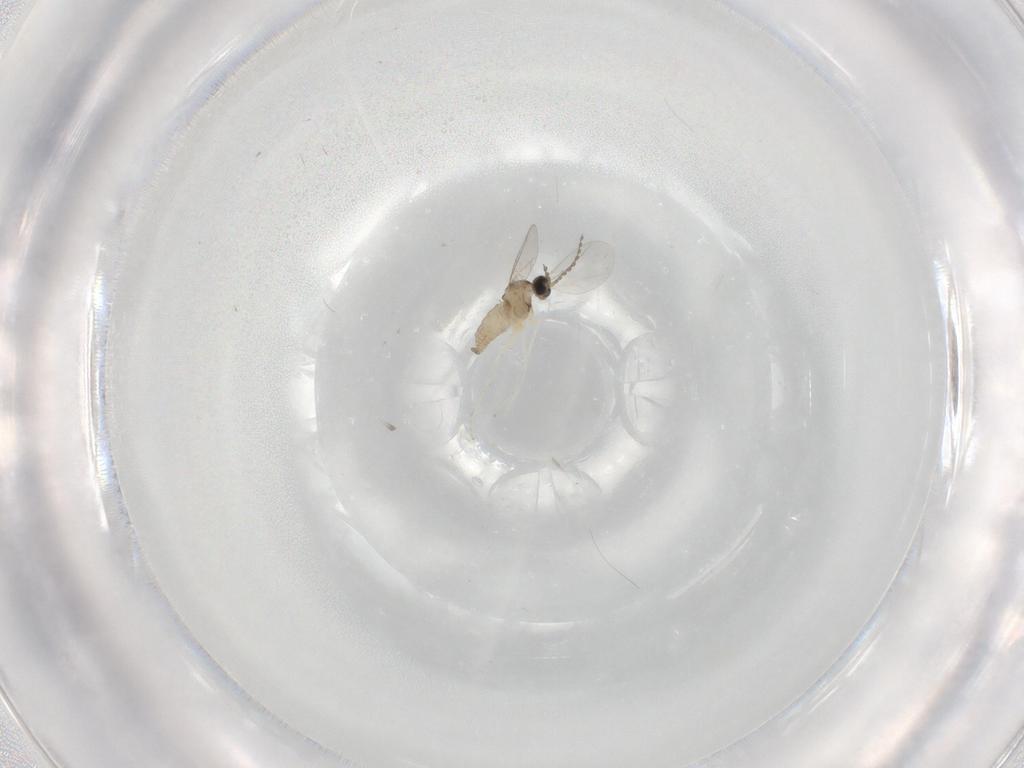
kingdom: Animalia
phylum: Arthropoda
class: Insecta
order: Diptera
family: Cecidomyiidae
